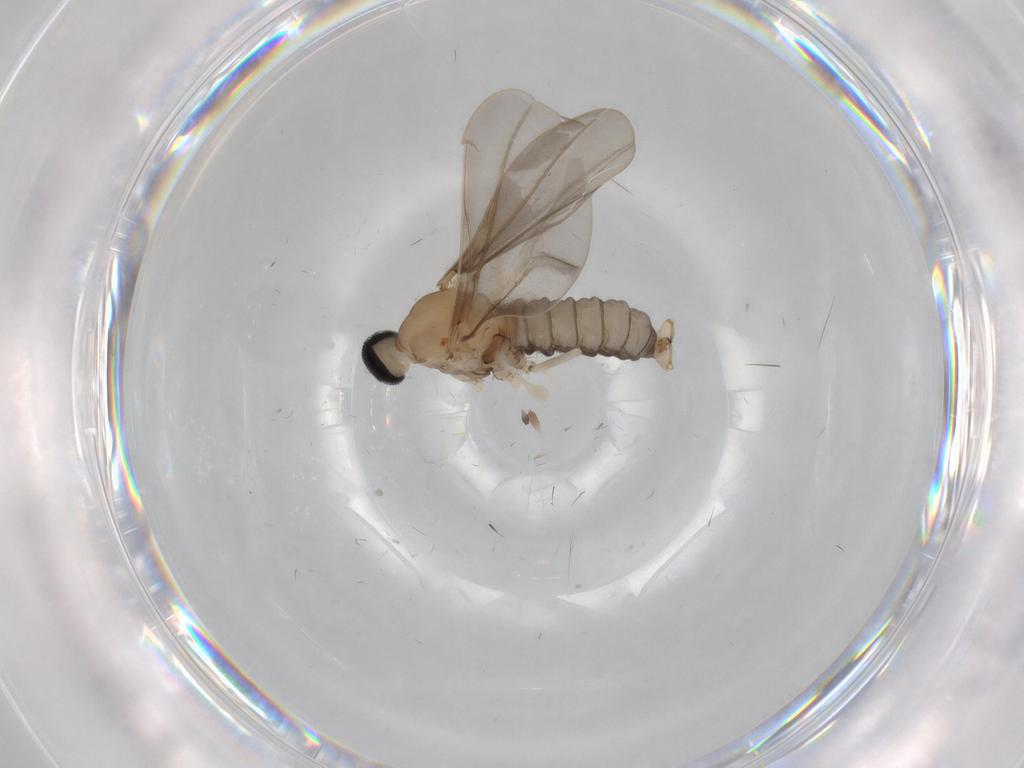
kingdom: Animalia
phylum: Arthropoda
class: Insecta
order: Diptera
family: Cecidomyiidae
